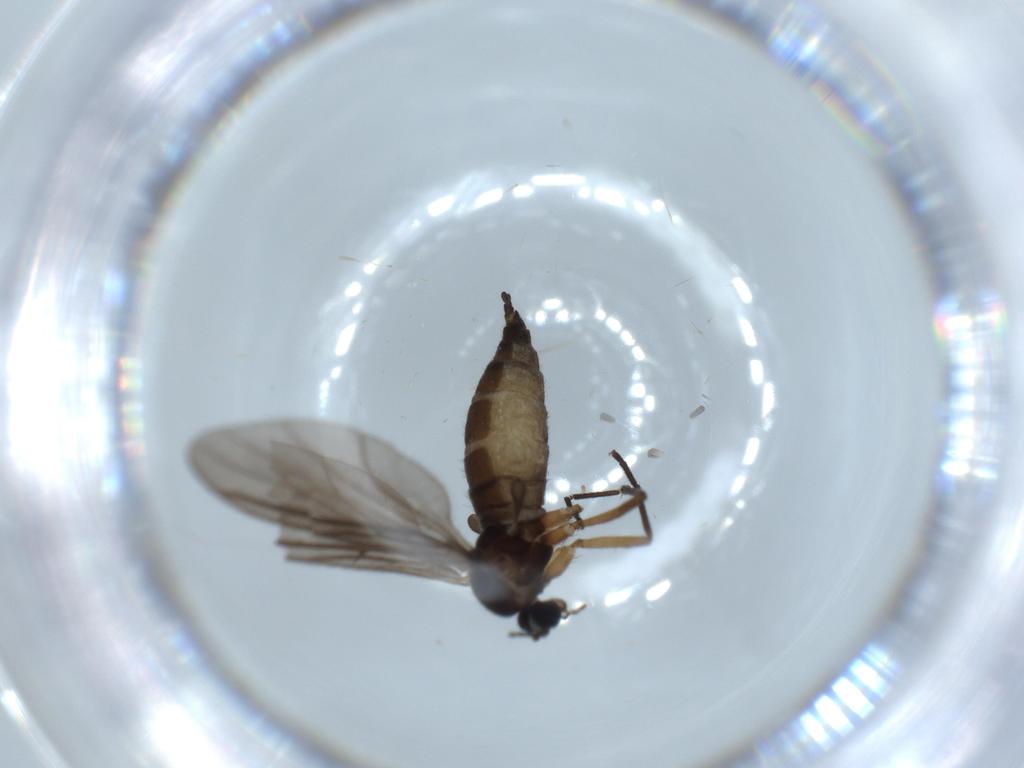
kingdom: Animalia
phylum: Arthropoda
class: Insecta
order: Diptera
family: Sciaridae
